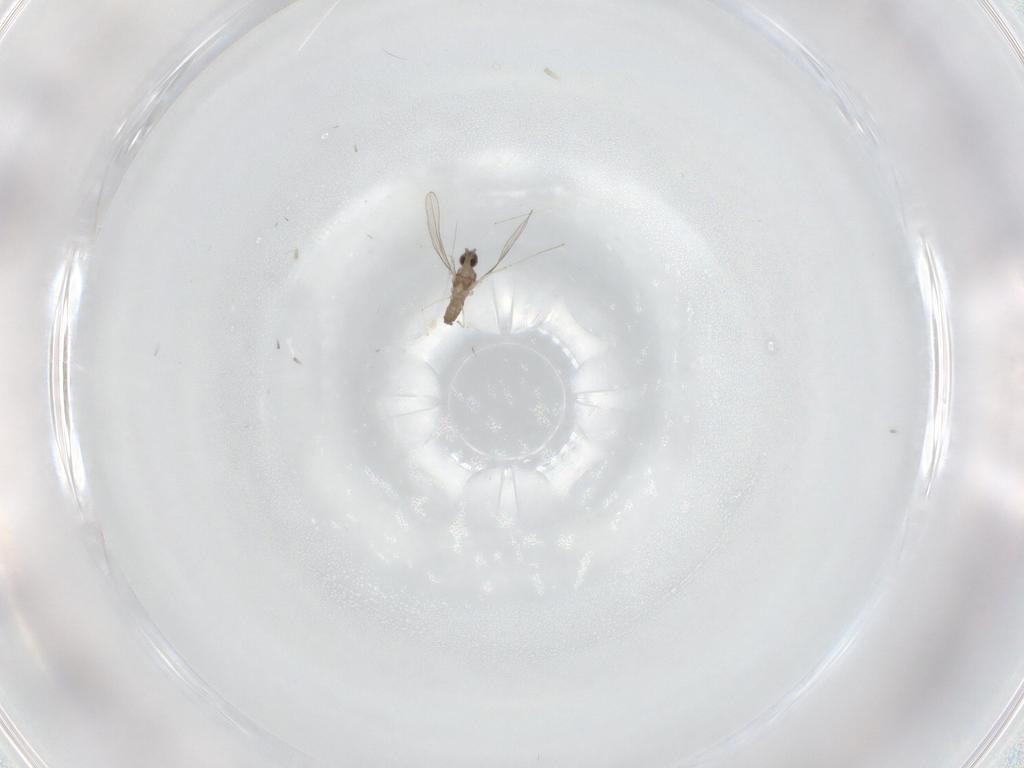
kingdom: Animalia
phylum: Arthropoda
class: Insecta
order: Diptera
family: Cecidomyiidae
